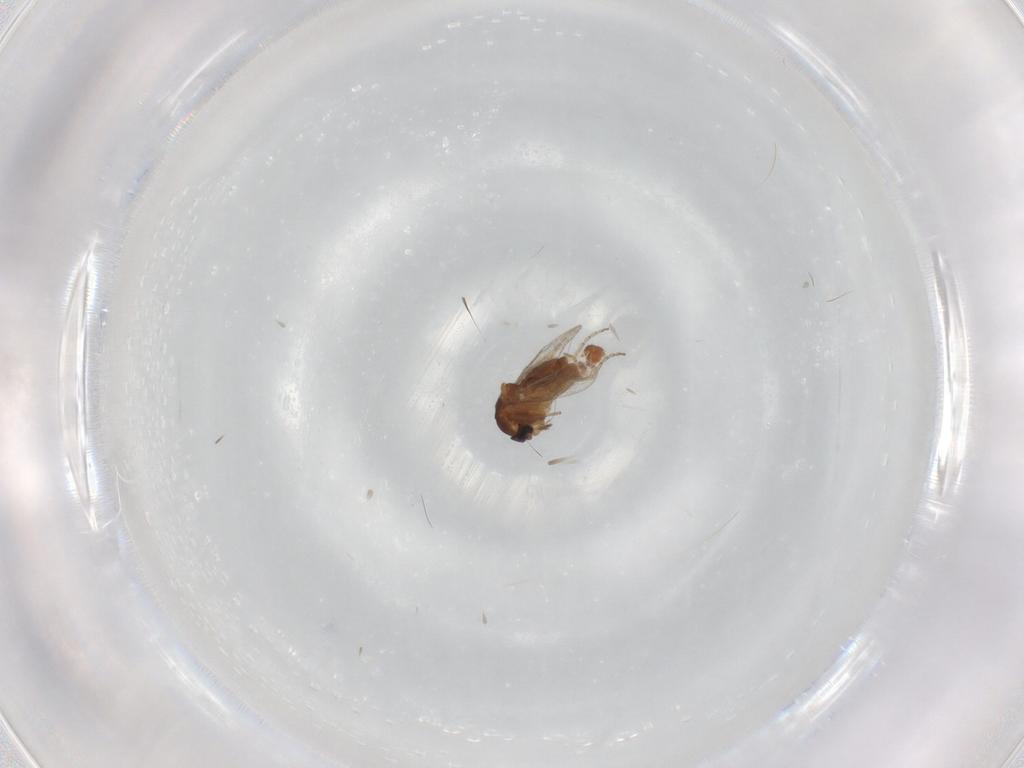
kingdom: Animalia
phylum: Arthropoda
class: Insecta
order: Diptera
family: Ceratopogonidae
